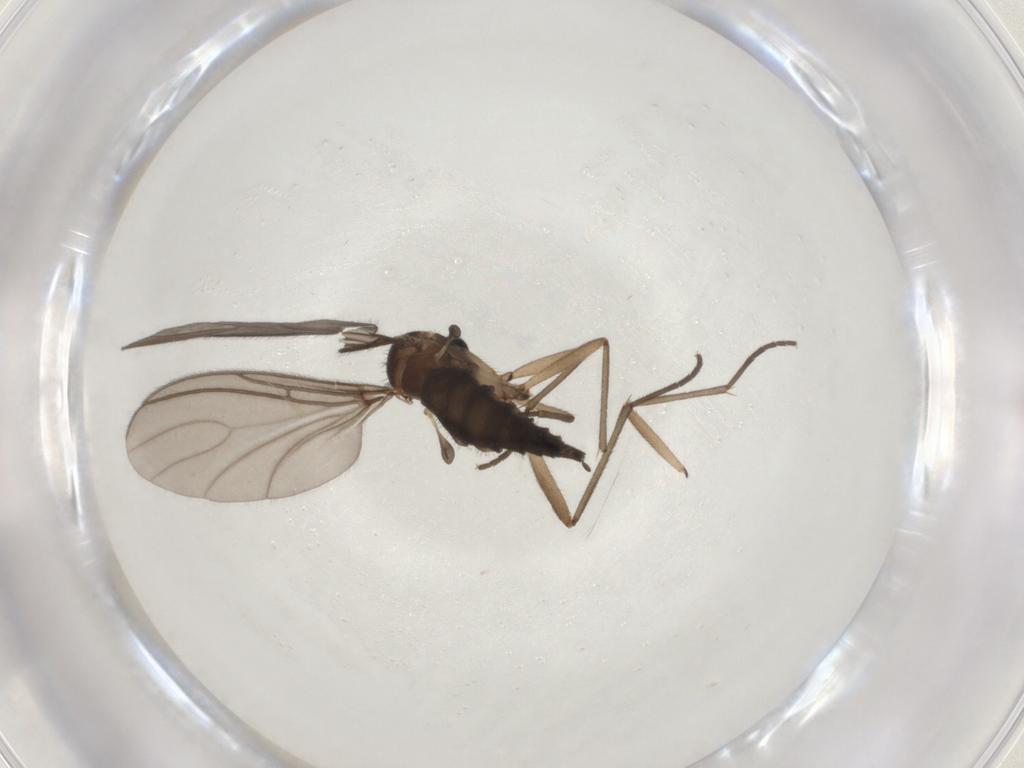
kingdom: Animalia
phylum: Arthropoda
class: Insecta
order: Diptera
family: Sciaridae
